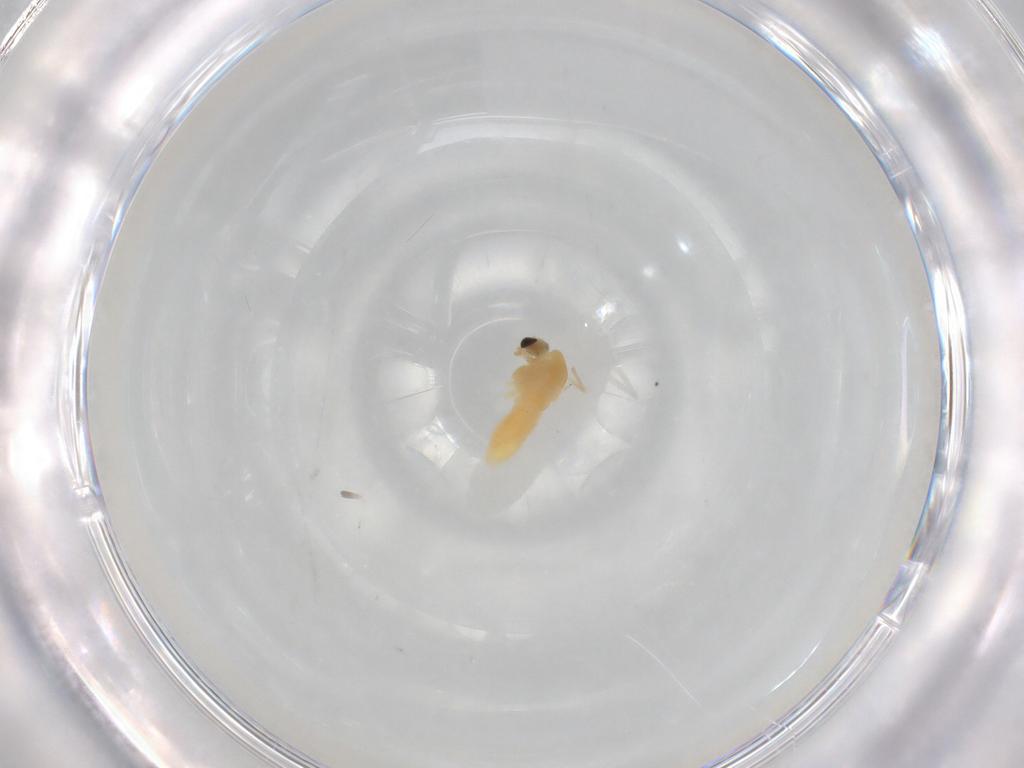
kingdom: Animalia
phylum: Arthropoda
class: Insecta
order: Diptera
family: Chironomidae
